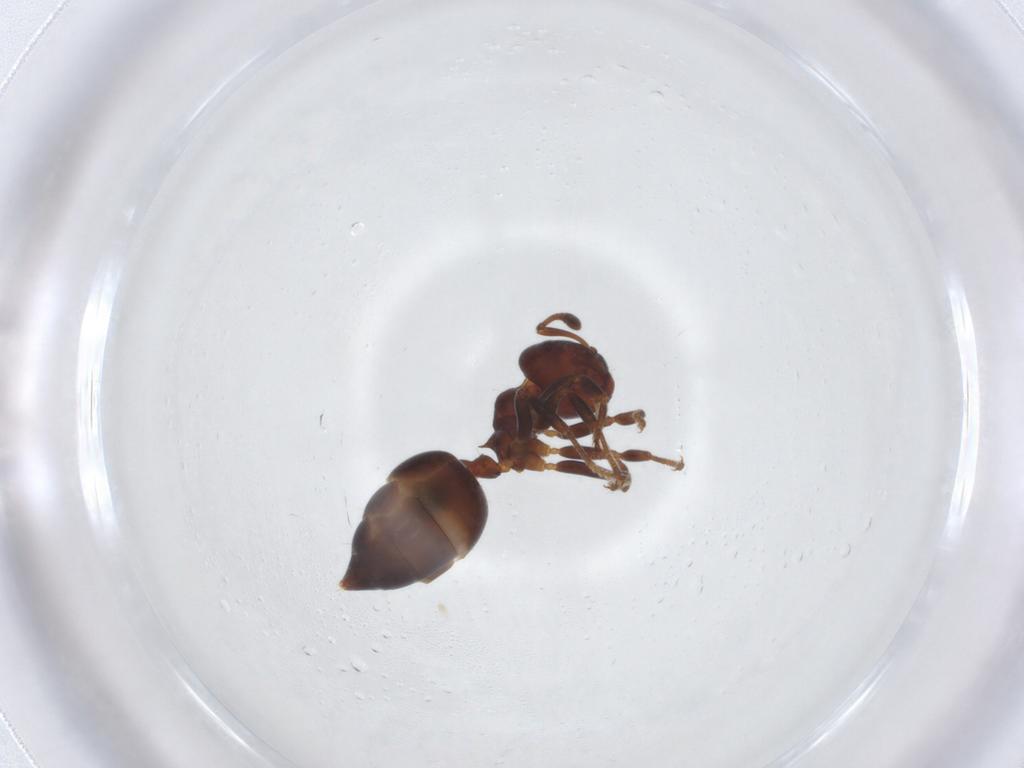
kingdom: Animalia
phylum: Arthropoda
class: Insecta
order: Hymenoptera
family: Formicidae
